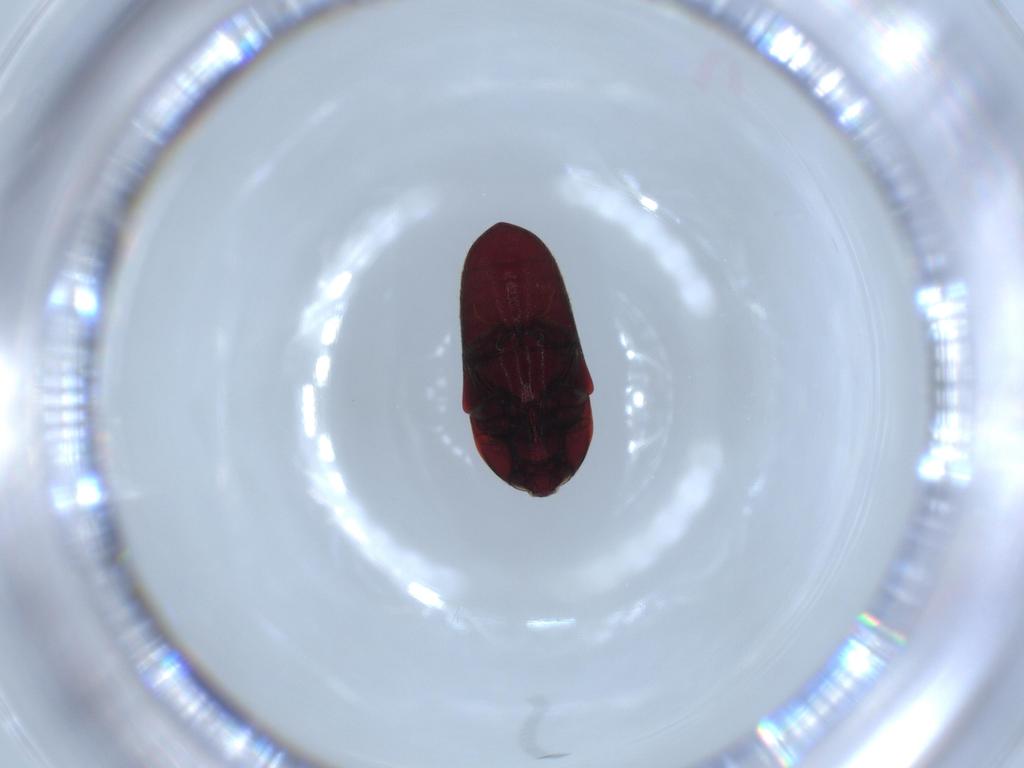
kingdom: Animalia
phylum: Arthropoda
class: Insecta
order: Coleoptera
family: Throscidae
